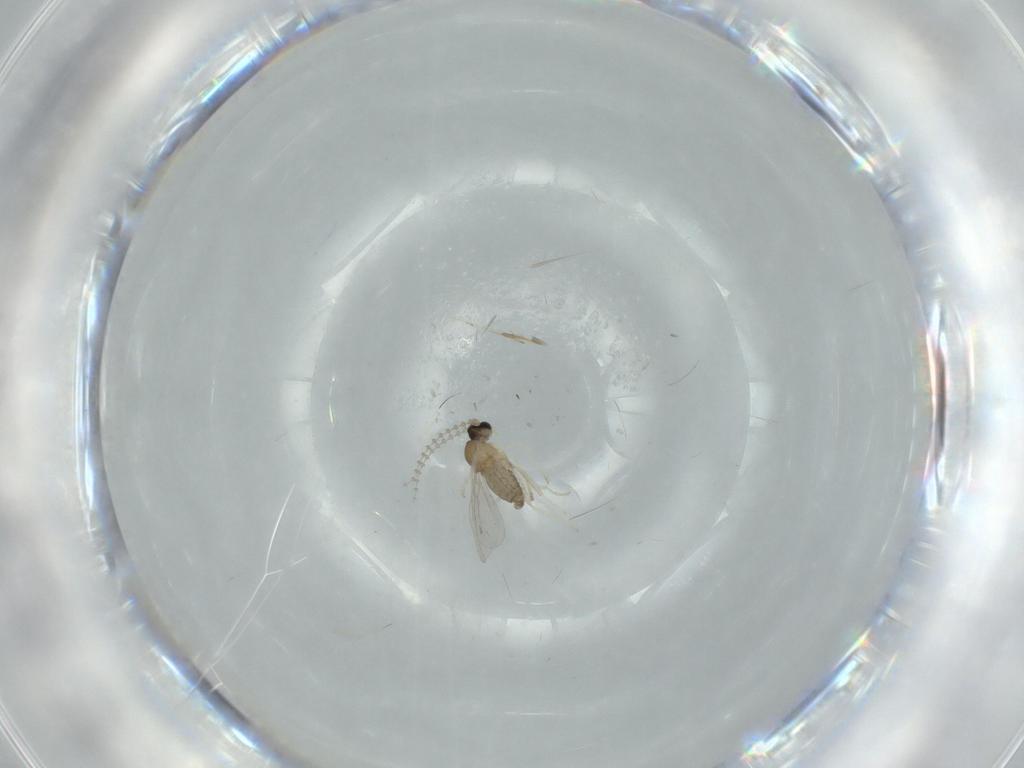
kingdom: Animalia
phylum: Arthropoda
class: Insecta
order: Diptera
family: Cecidomyiidae
